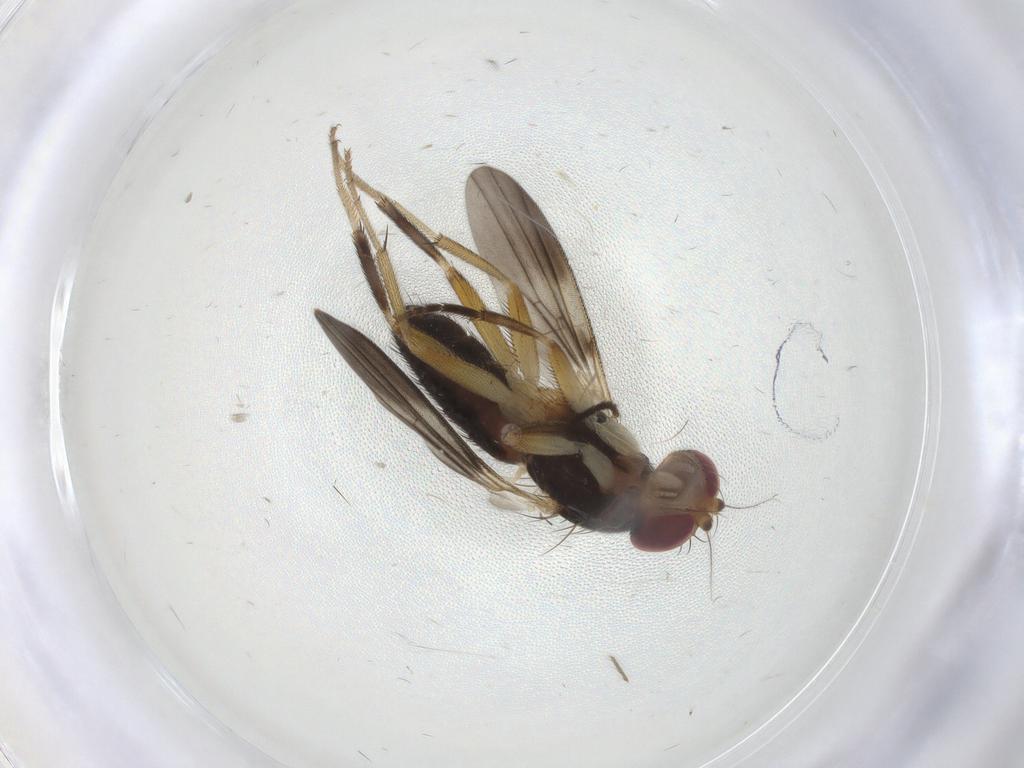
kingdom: Animalia
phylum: Arthropoda
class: Insecta
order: Diptera
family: Clusiidae
